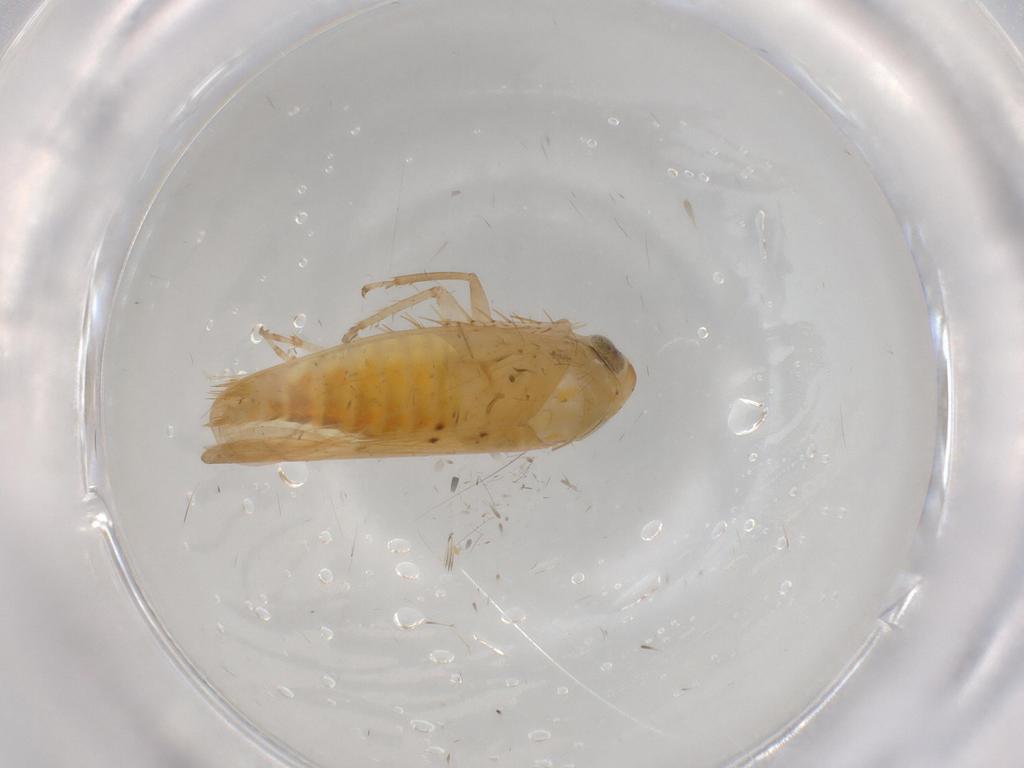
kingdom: Animalia
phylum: Arthropoda
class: Insecta
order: Hemiptera
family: Cicadellidae
